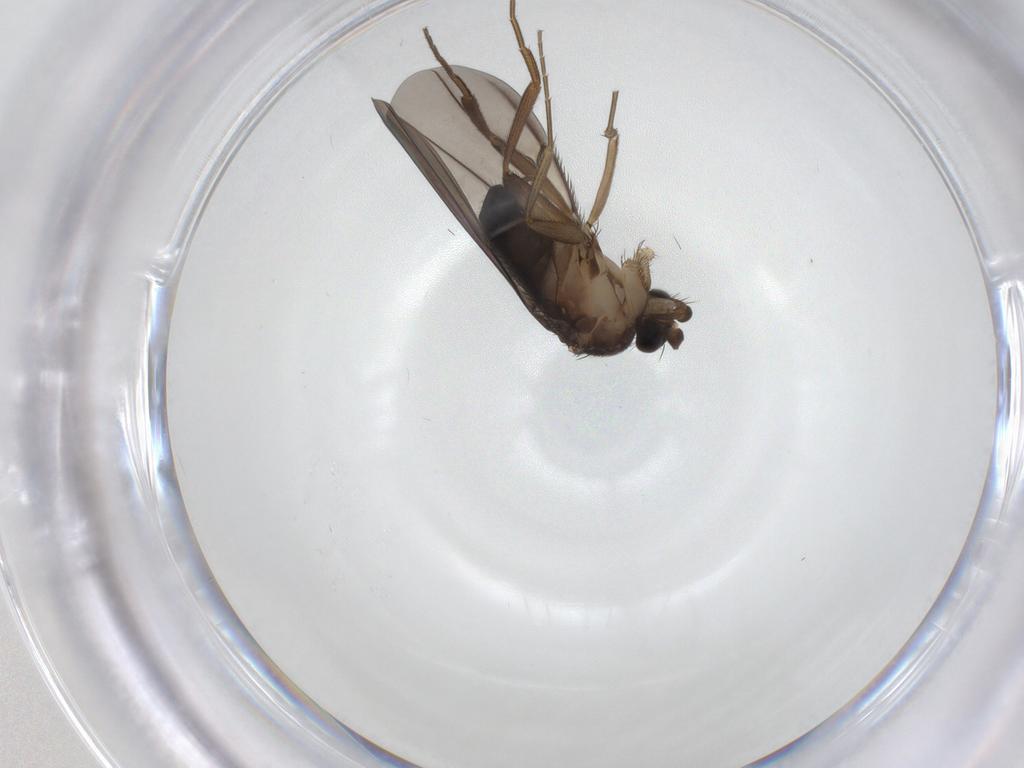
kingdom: Animalia
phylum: Arthropoda
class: Insecta
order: Diptera
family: Phoridae
